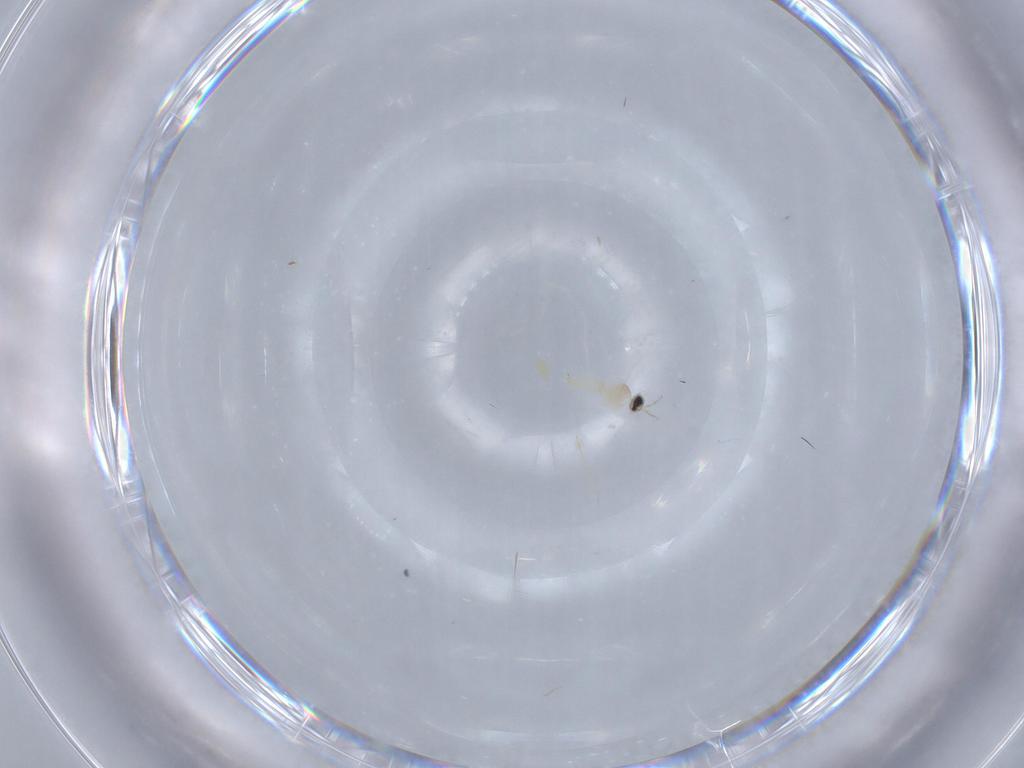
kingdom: Animalia
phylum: Arthropoda
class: Insecta
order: Diptera
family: Cecidomyiidae
